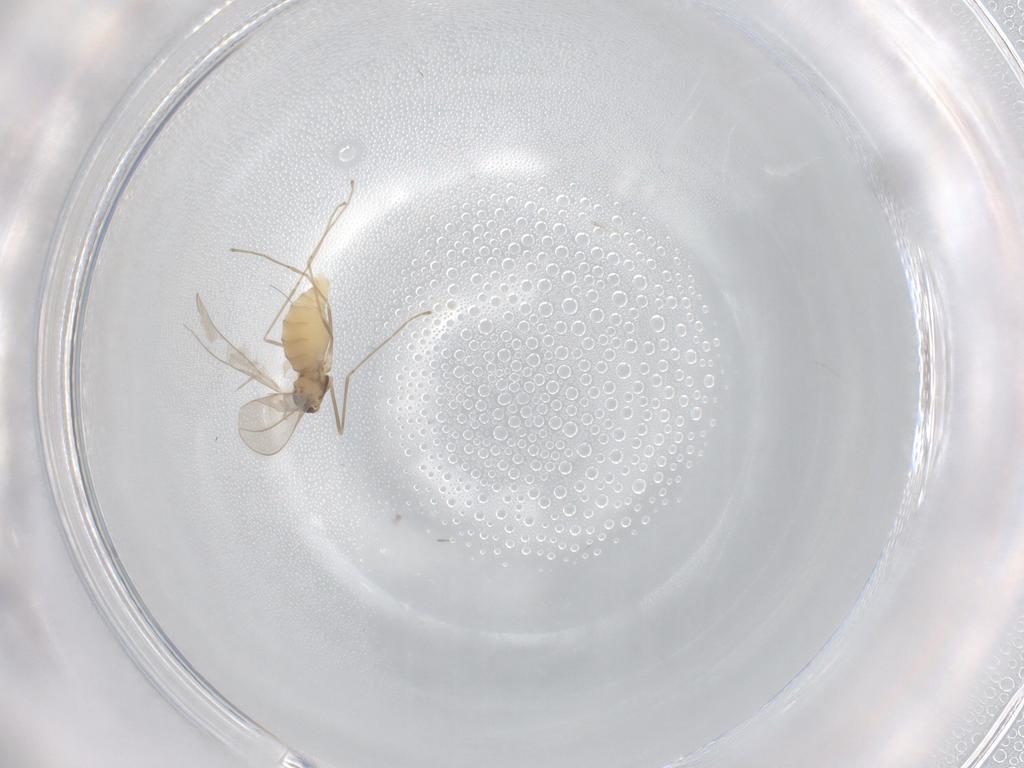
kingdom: Animalia
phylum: Arthropoda
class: Insecta
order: Diptera
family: Cecidomyiidae
